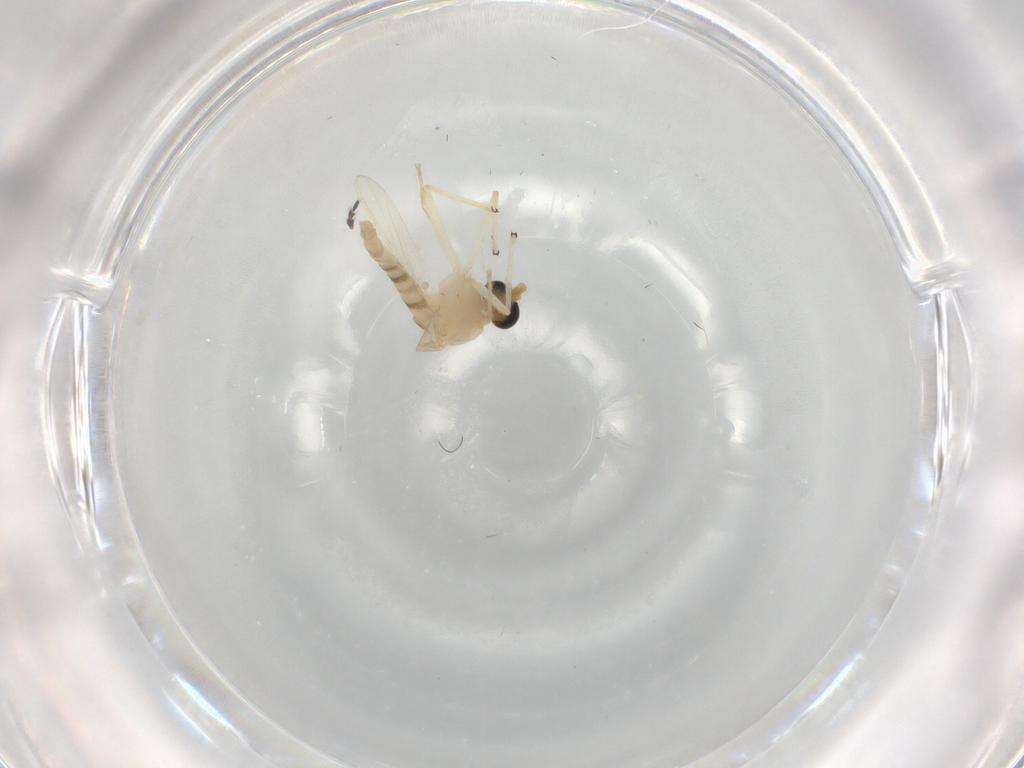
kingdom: Animalia
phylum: Arthropoda
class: Insecta
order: Diptera
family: Chironomidae
